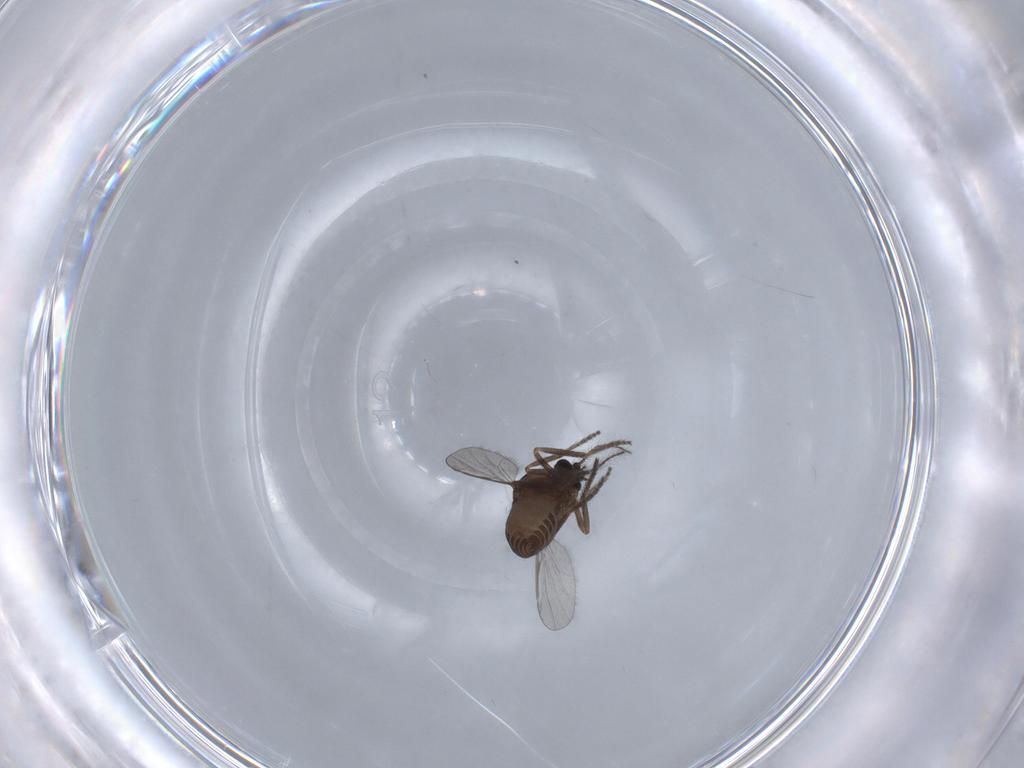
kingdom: Animalia
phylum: Arthropoda
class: Insecta
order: Diptera
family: Ceratopogonidae
